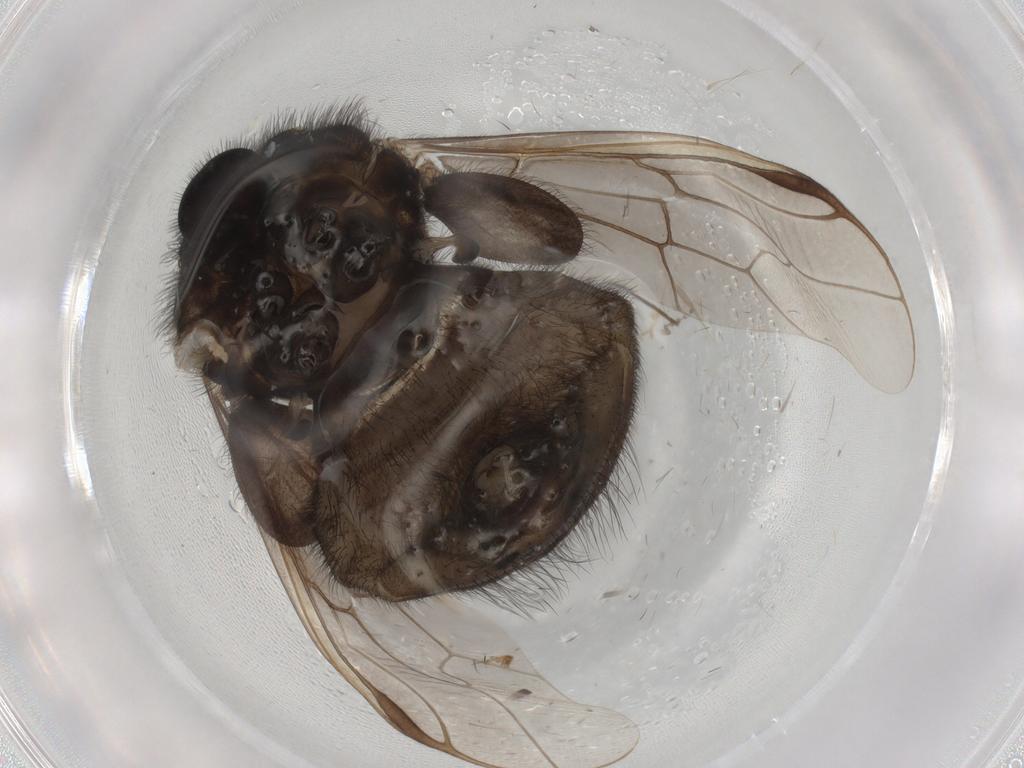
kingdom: Animalia
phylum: Arthropoda
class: Insecta
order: Diptera
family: Acroceridae
